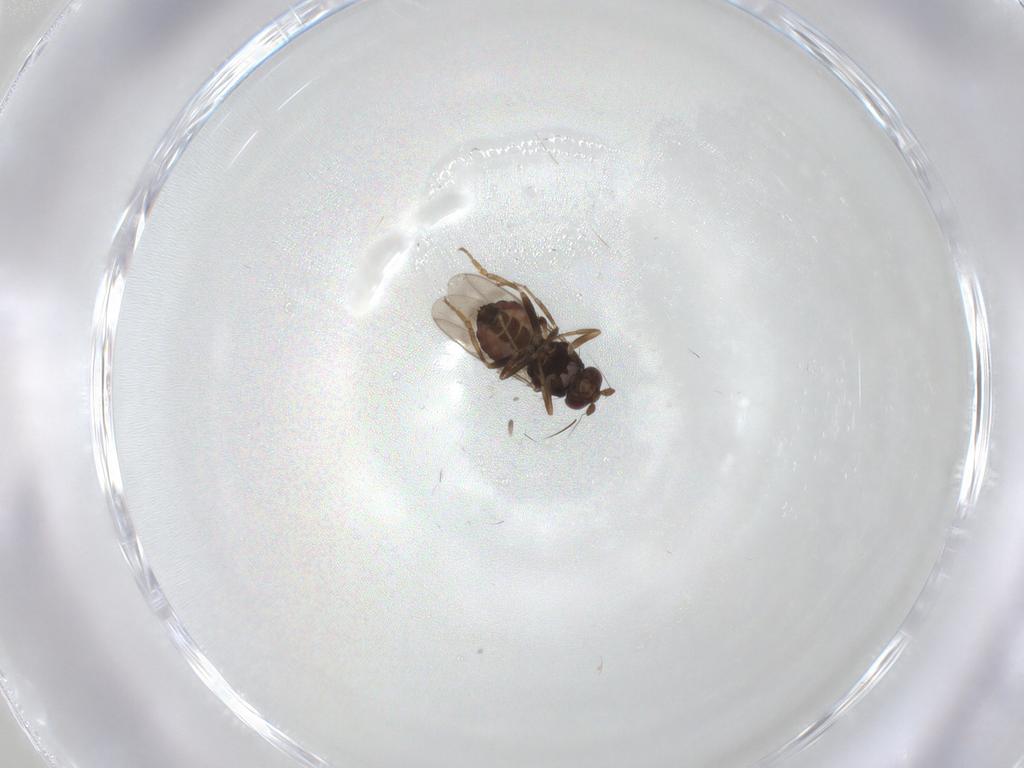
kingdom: Animalia
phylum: Arthropoda
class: Insecta
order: Diptera
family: Sphaeroceridae
